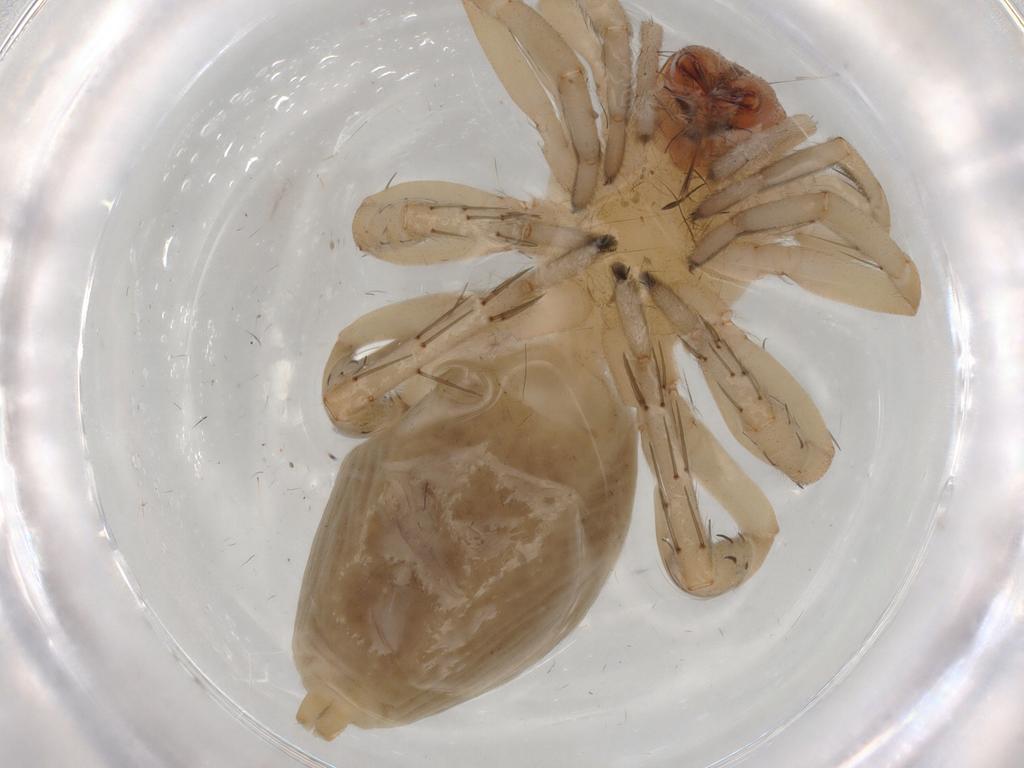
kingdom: Animalia
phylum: Arthropoda
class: Arachnida
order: Araneae
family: Clubionidae
